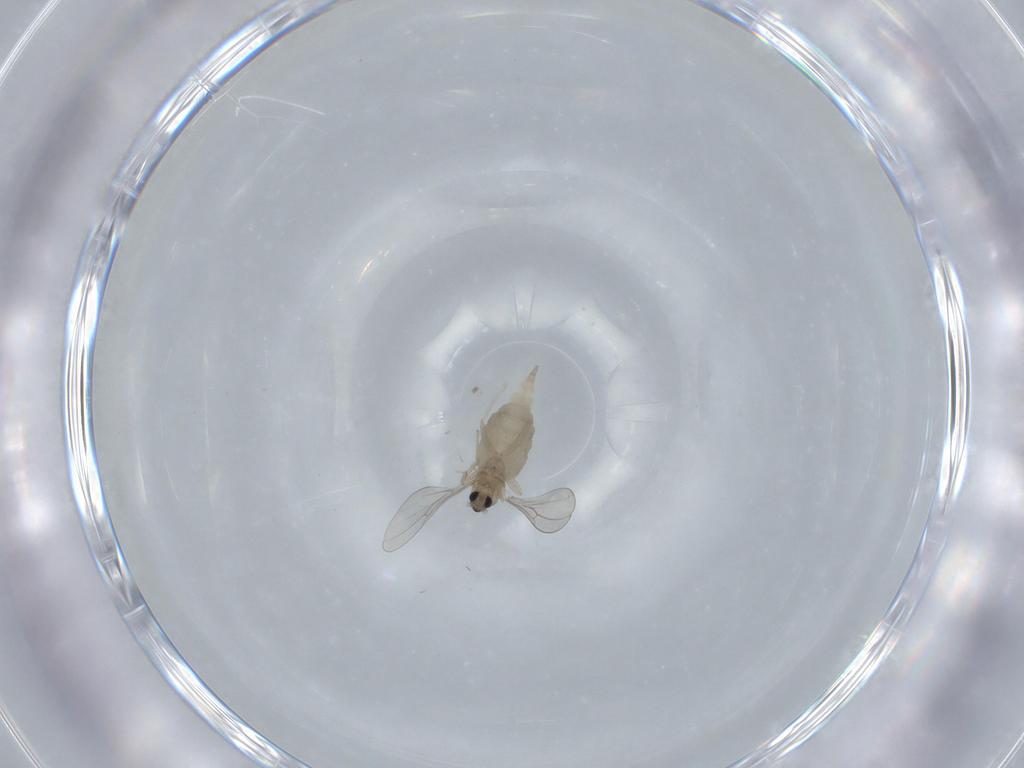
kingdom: Animalia
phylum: Arthropoda
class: Insecta
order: Diptera
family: Cecidomyiidae
